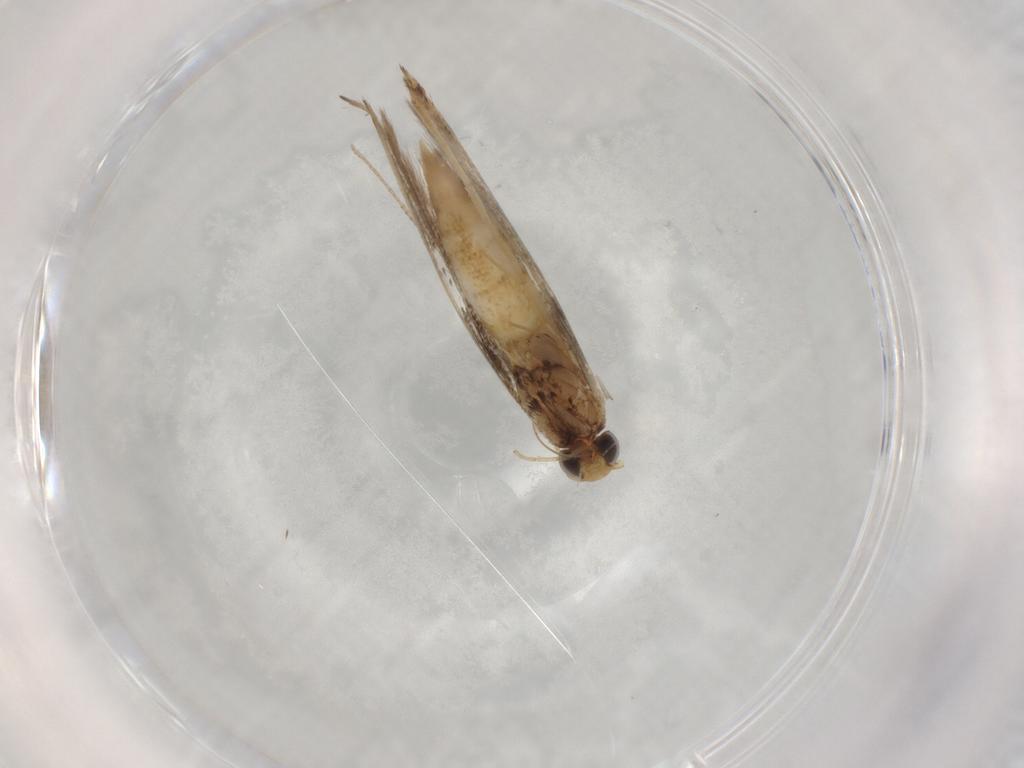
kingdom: Animalia
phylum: Arthropoda
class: Insecta
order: Lepidoptera
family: Gracillariidae
